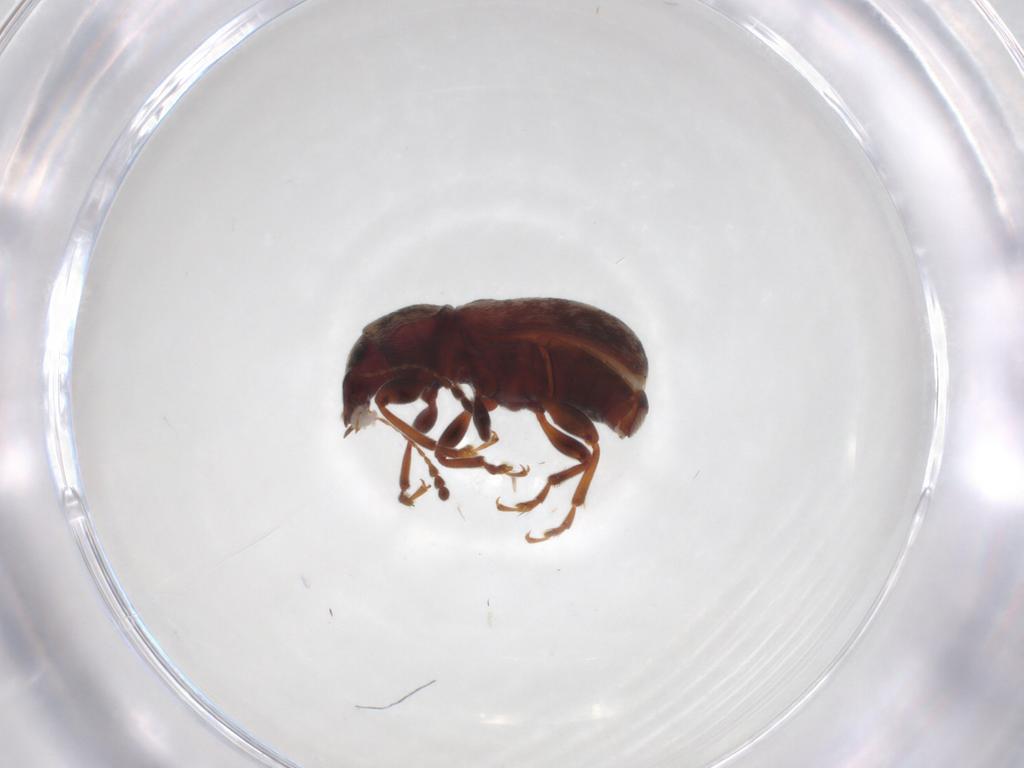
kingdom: Animalia
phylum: Arthropoda
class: Insecta
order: Coleoptera
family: Anthribidae
